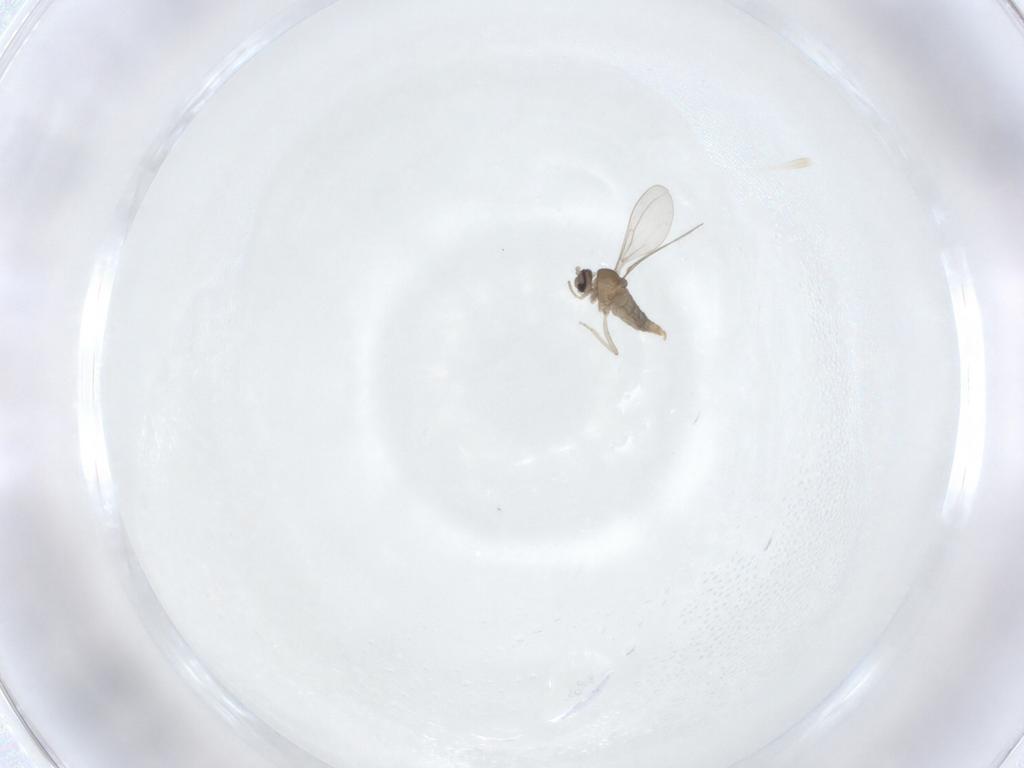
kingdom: Animalia
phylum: Arthropoda
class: Insecta
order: Diptera
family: Cecidomyiidae
